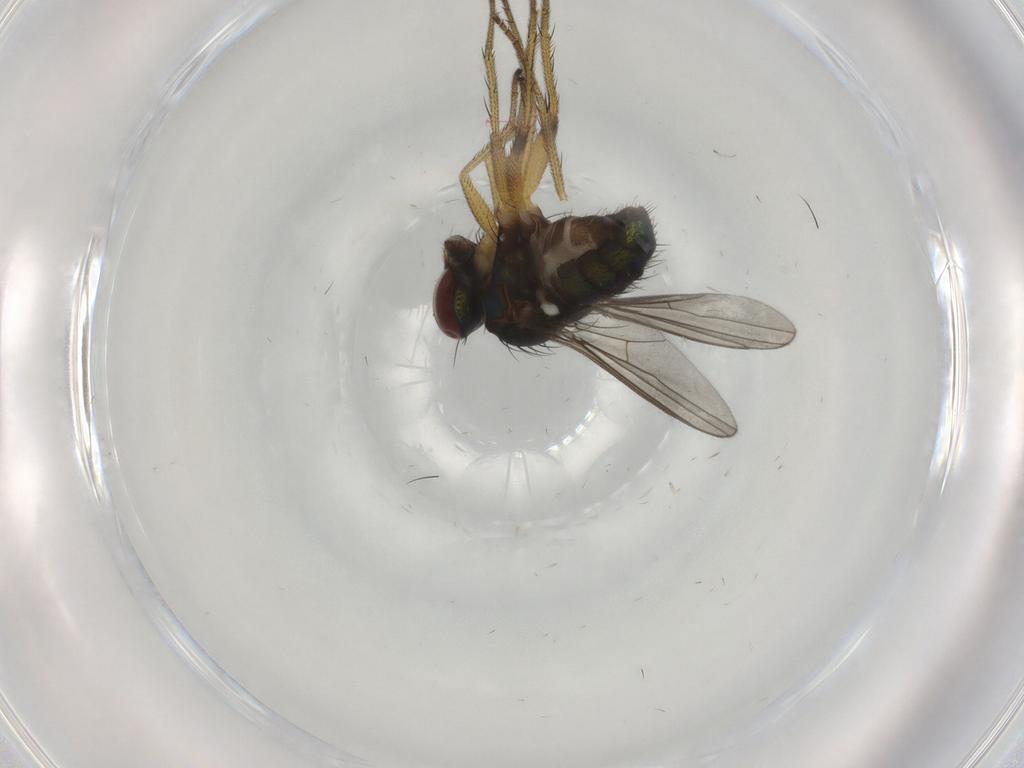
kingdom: Animalia
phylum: Arthropoda
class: Insecta
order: Diptera
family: Dolichopodidae
